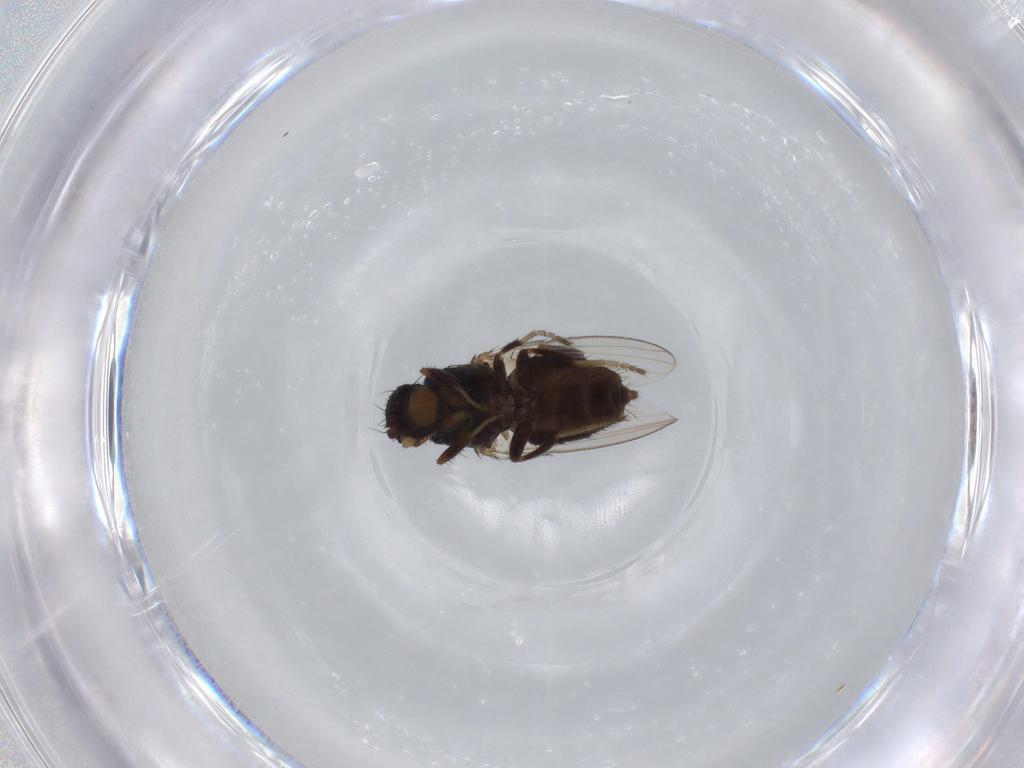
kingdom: Animalia
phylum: Arthropoda
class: Insecta
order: Diptera
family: Milichiidae
